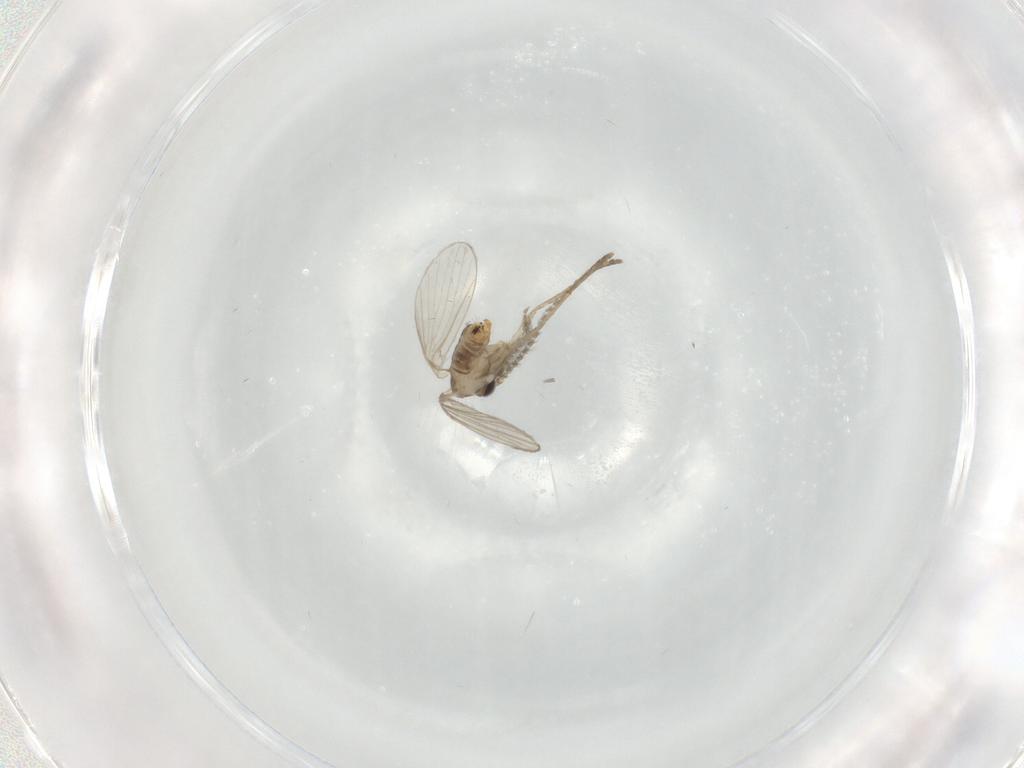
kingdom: Animalia
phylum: Arthropoda
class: Insecta
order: Diptera
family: Psychodidae
